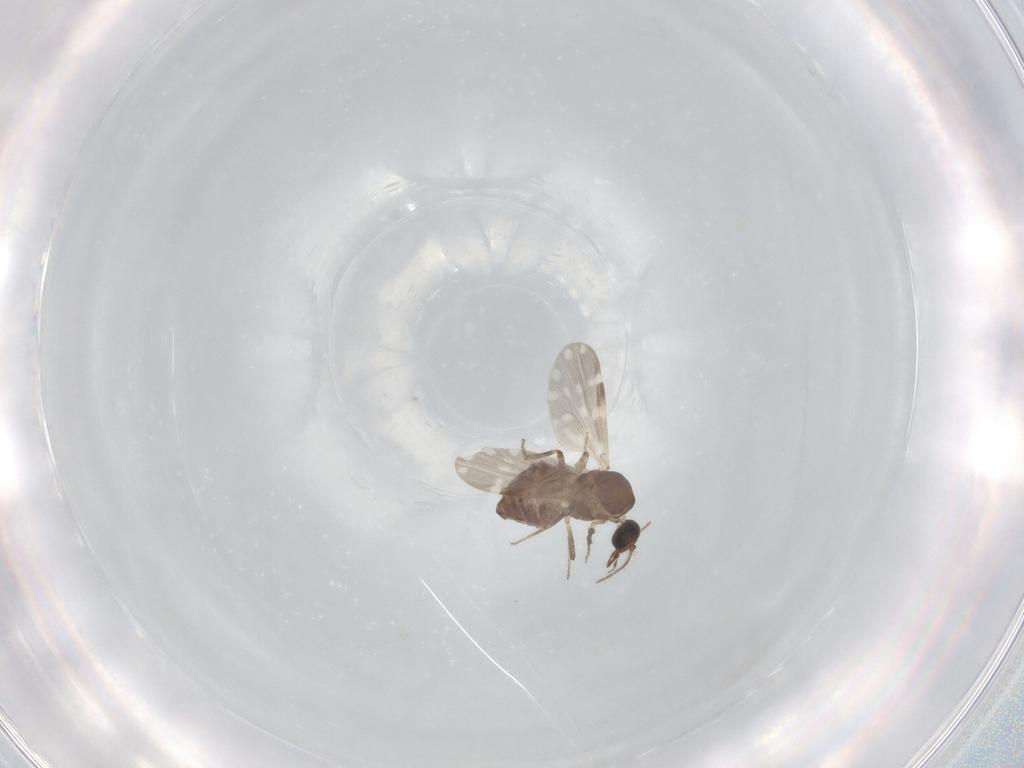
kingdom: Animalia
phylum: Arthropoda
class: Insecta
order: Diptera
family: Ceratopogonidae
